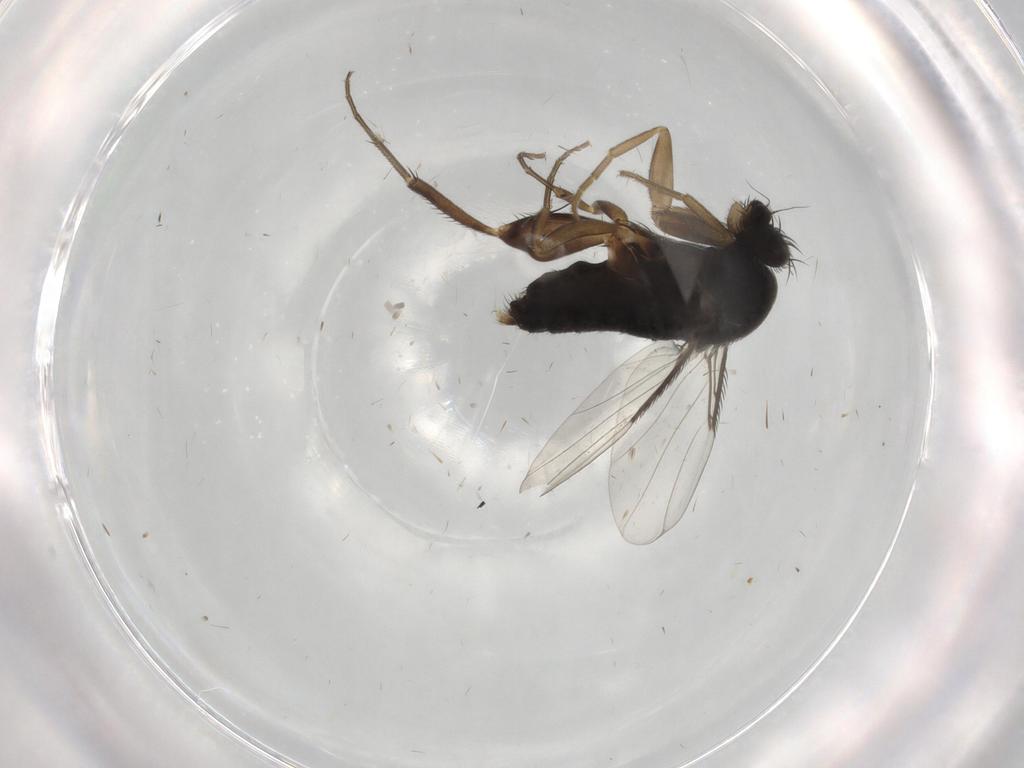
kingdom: Animalia
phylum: Arthropoda
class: Insecta
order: Diptera
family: Phoridae
